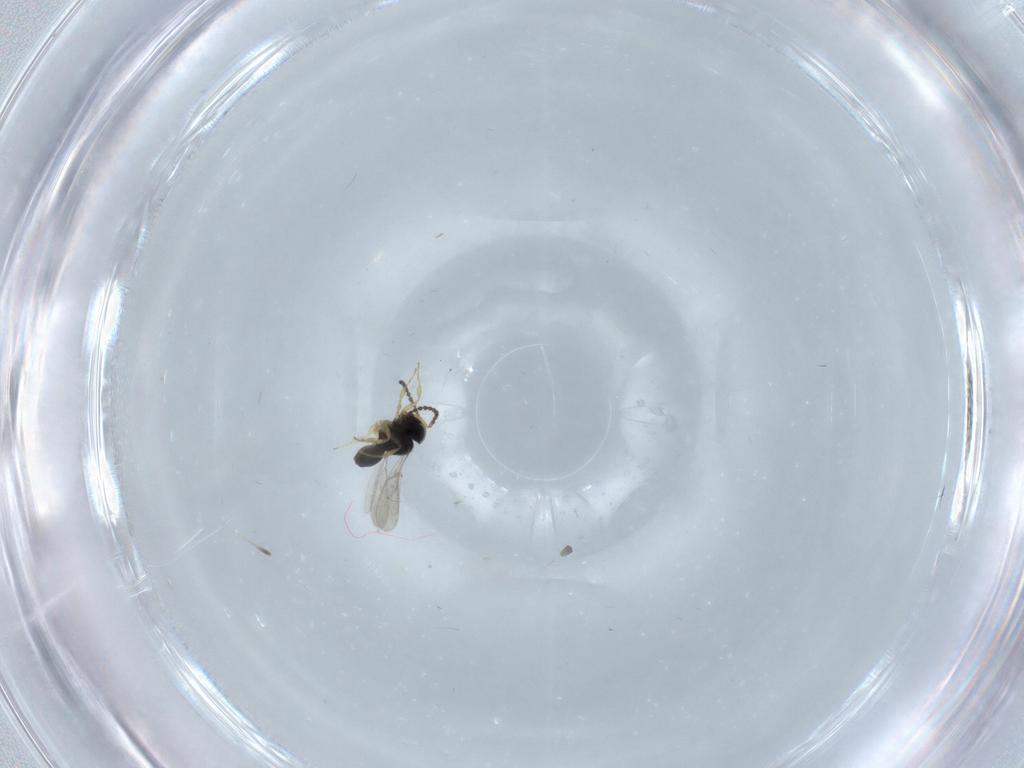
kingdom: Animalia
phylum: Arthropoda
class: Insecta
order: Hymenoptera
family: Scelionidae
